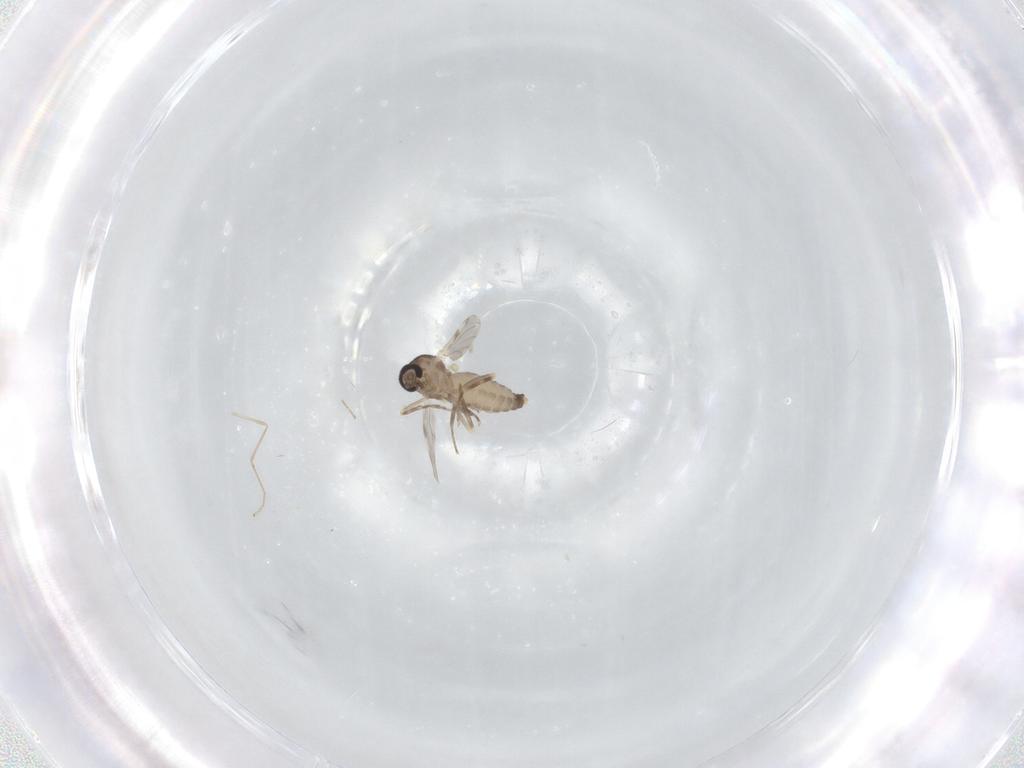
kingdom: Animalia
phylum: Arthropoda
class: Insecta
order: Diptera
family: Ceratopogonidae
